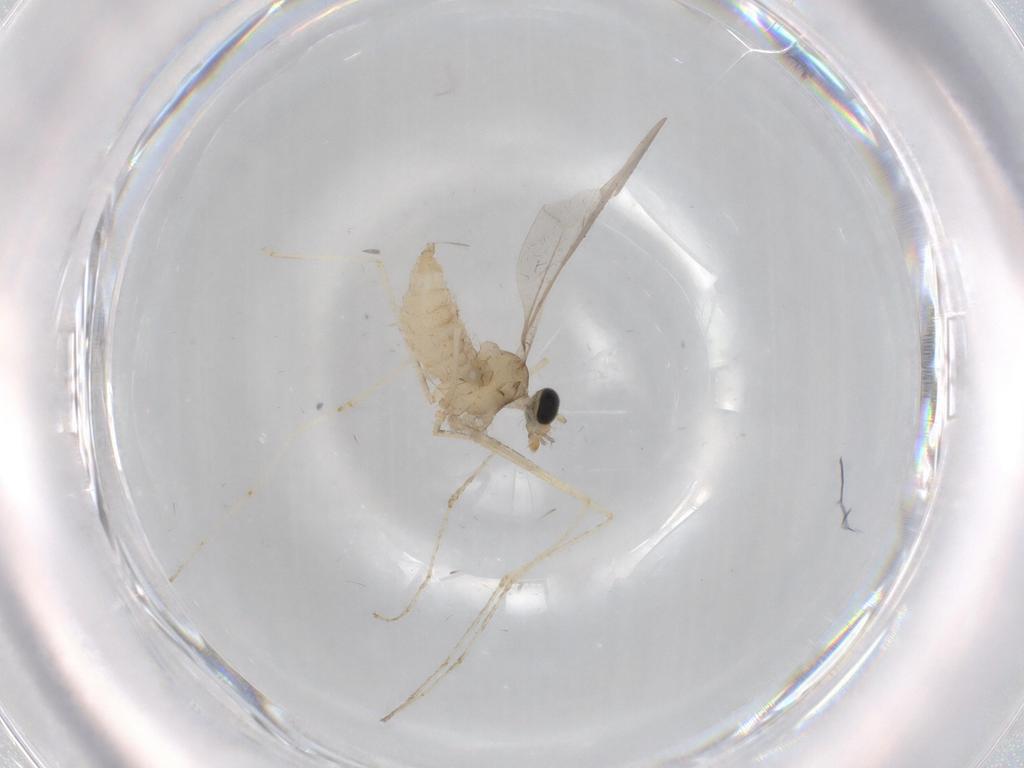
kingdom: Animalia
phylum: Arthropoda
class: Insecta
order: Diptera
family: Cecidomyiidae
